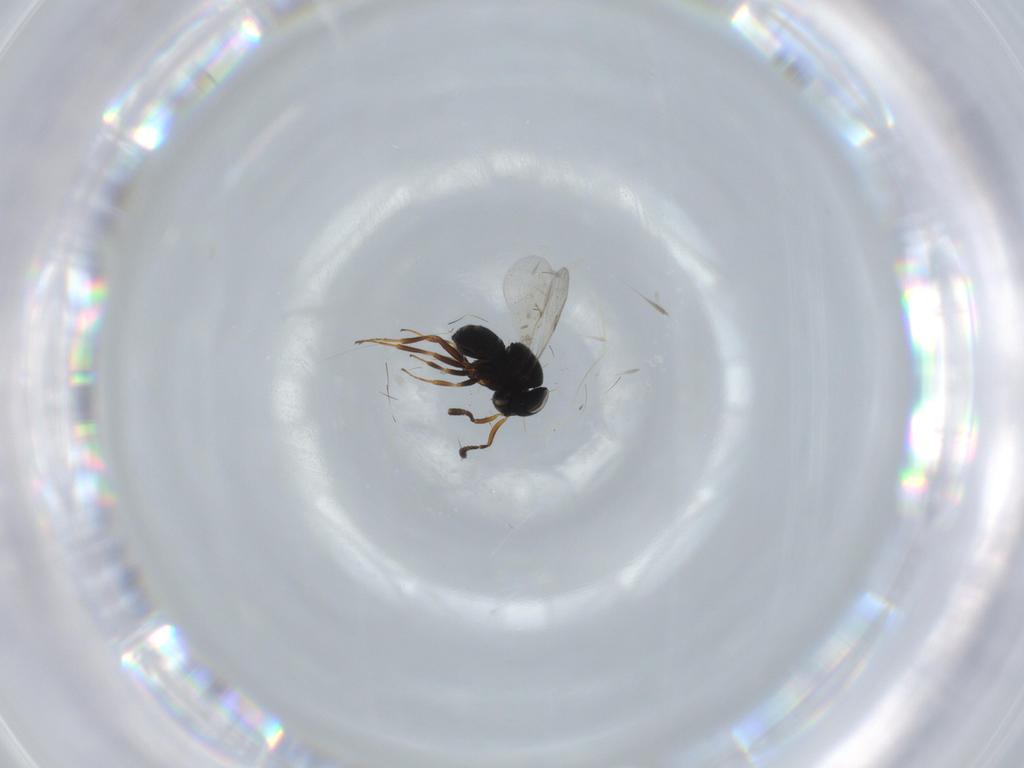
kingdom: Animalia
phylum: Arthropoda
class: Insecta
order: Hymenoptera
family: Scelionidae
